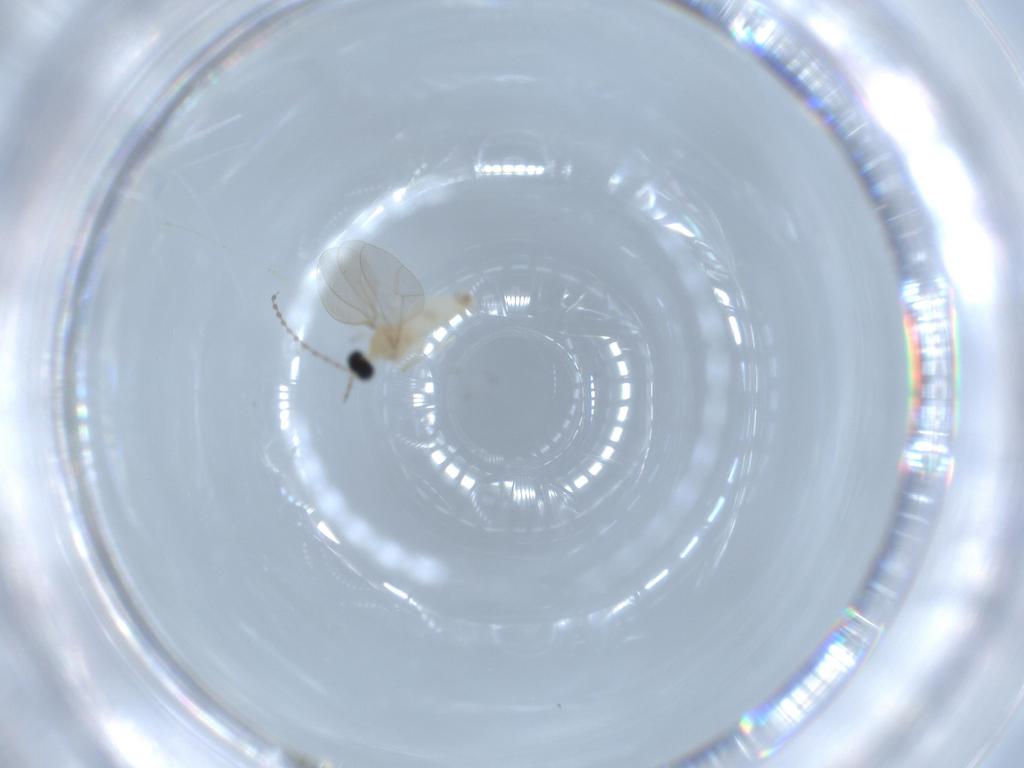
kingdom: Animalia
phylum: Arthropoda
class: Insecta
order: Diptera
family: Cecidomyiidae
